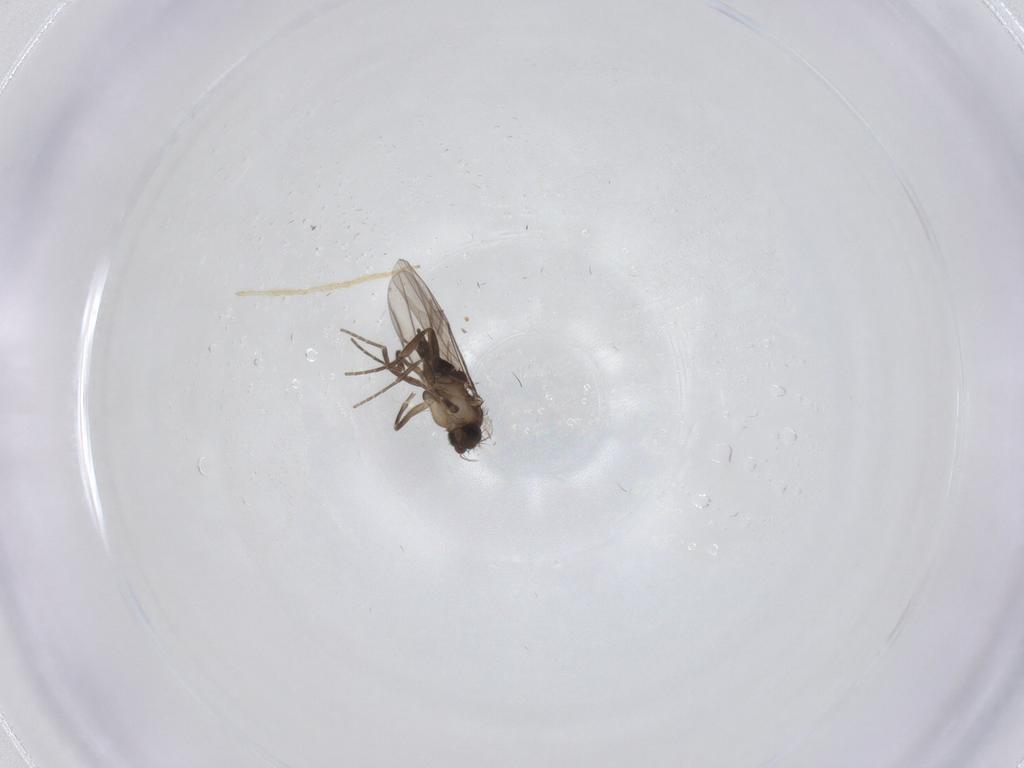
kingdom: Animalia
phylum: Arthropoda
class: Insecta
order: Diptera
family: Chironomidae
